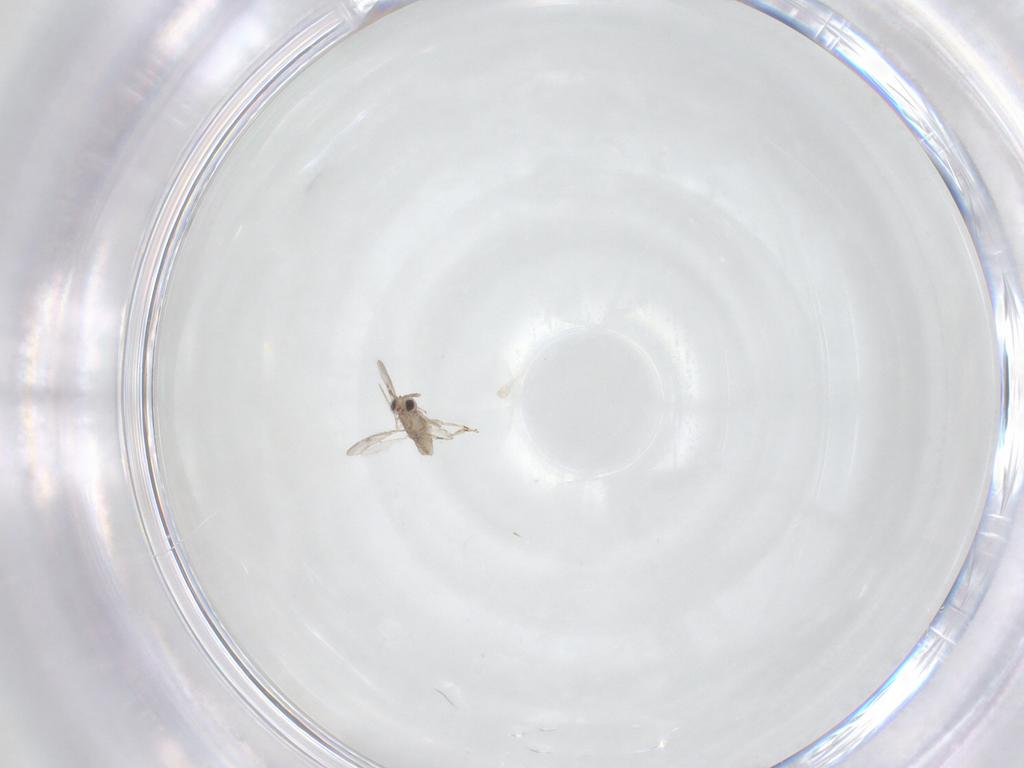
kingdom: Animalia
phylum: Arthropoda
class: Insecta
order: Hymenoptera
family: Aphelinidae
